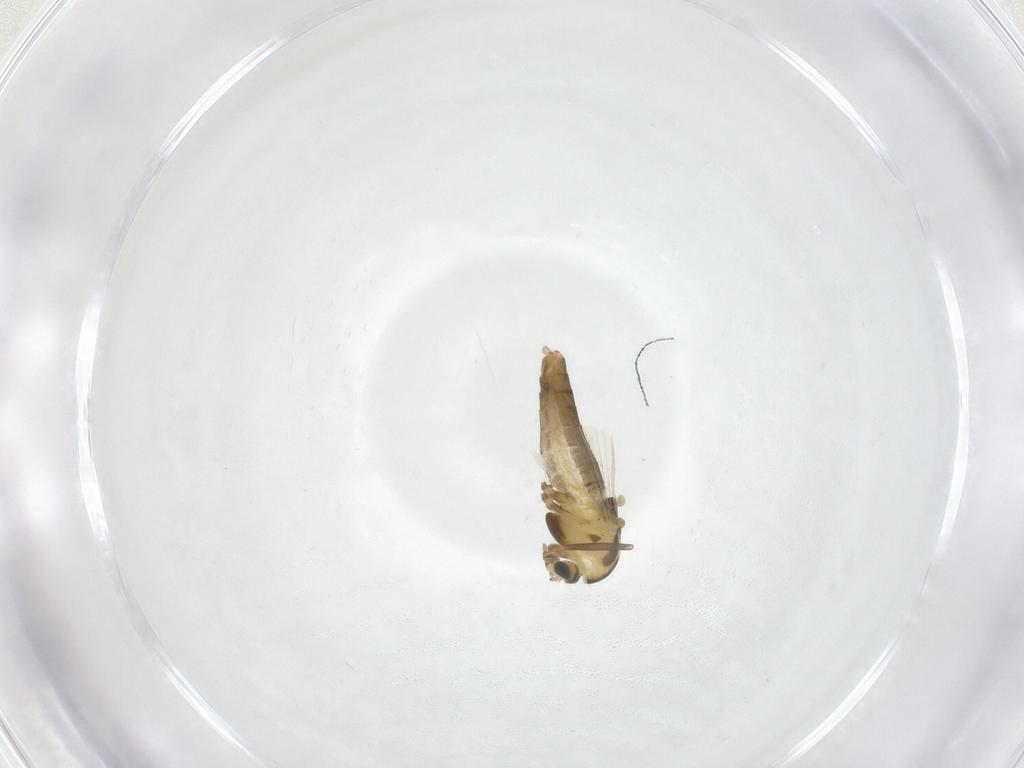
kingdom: Animalia
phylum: Arthropoda
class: Insecta
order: Diptera
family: Chironomidae
